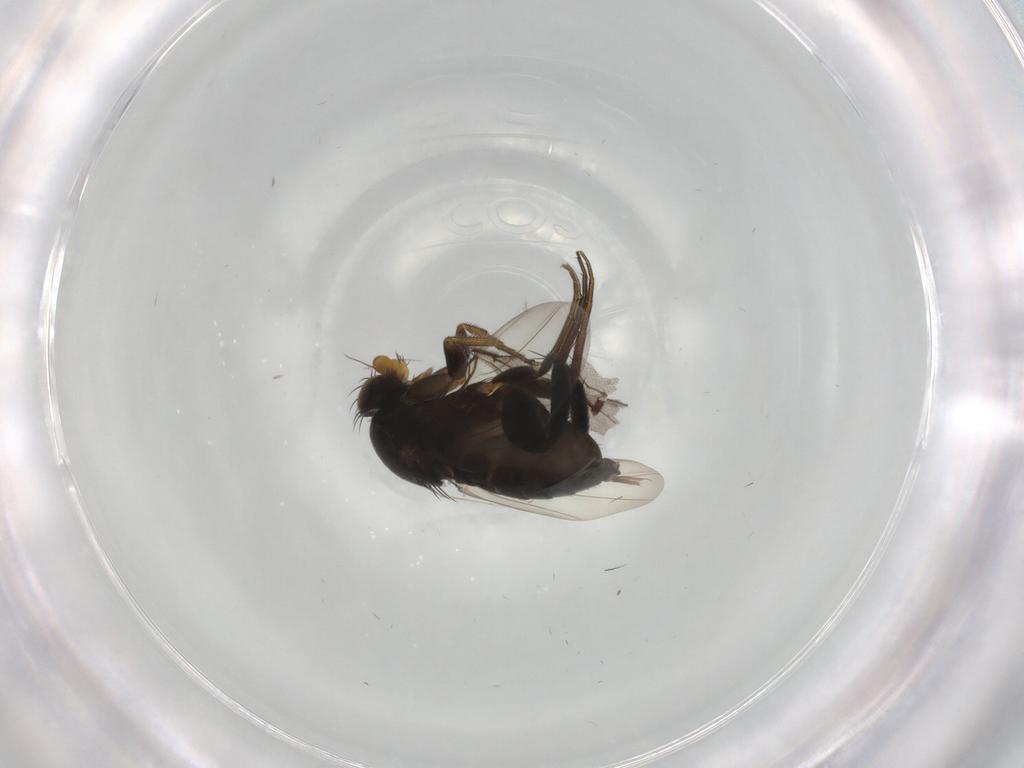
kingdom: Animalia
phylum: Arthropoda
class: Insecta
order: Diptera
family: Phoridae
